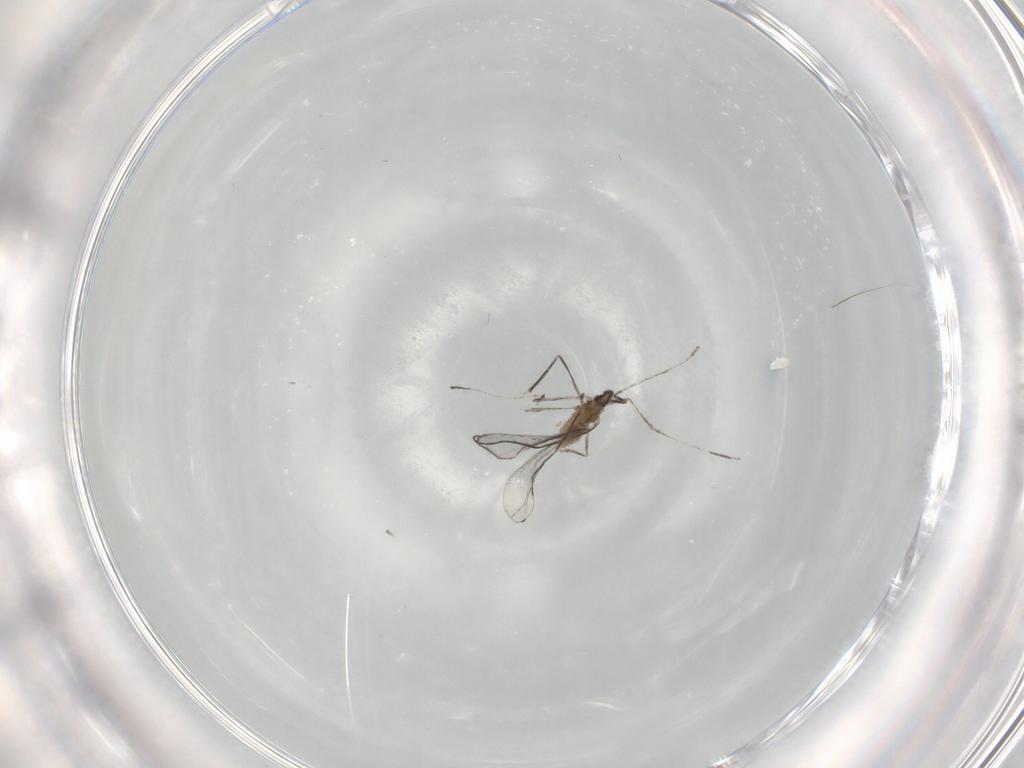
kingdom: Animalia
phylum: Arthropoda
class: Insecta
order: Diptera
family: Cecidomyiidae
